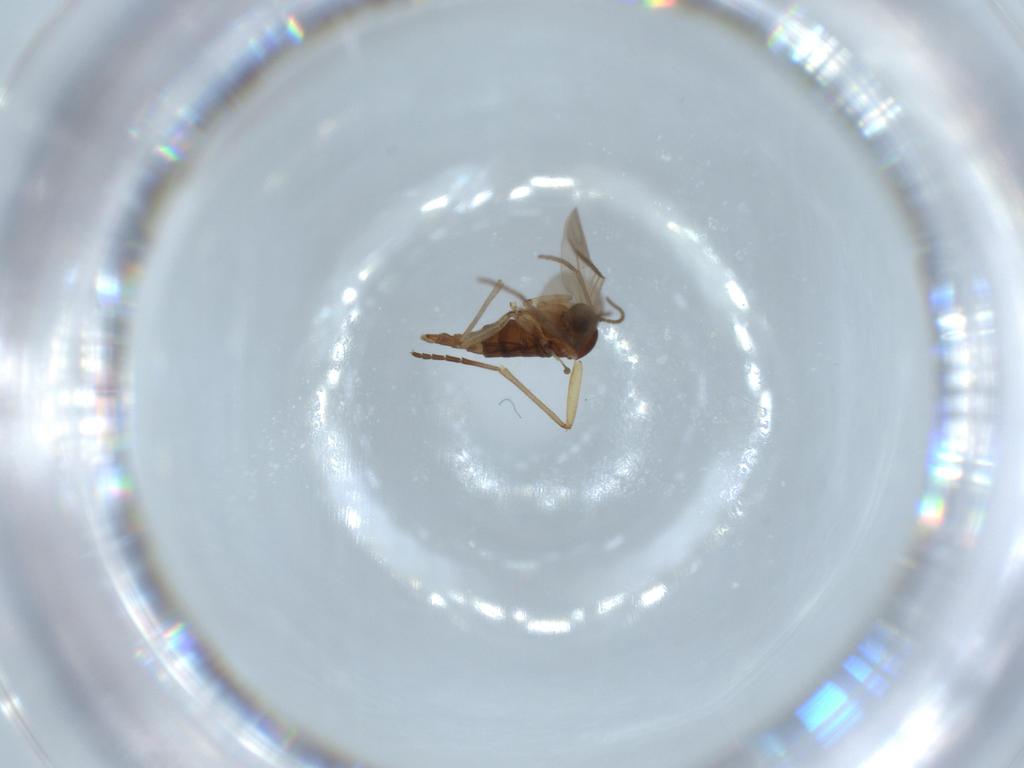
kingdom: Animalia
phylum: Arthropoda
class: Insecta
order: Diptera
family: Sciaridae
